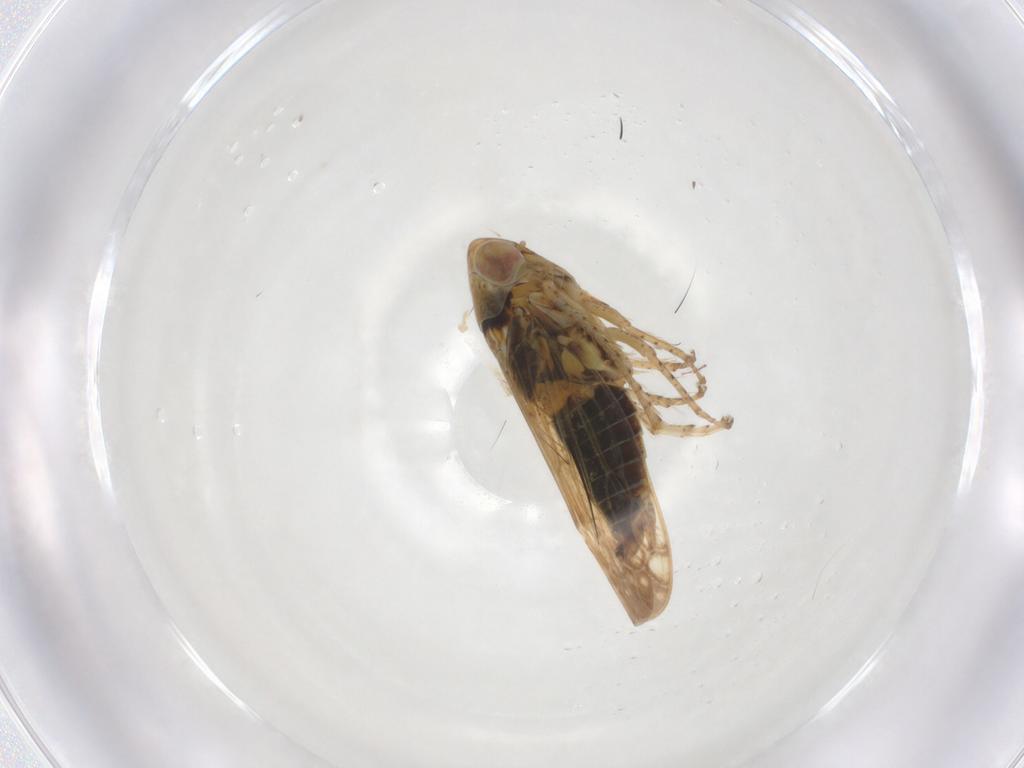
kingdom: Animalia
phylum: Arthropoda
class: Insecta
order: Hemiptera
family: Cicadellidae
